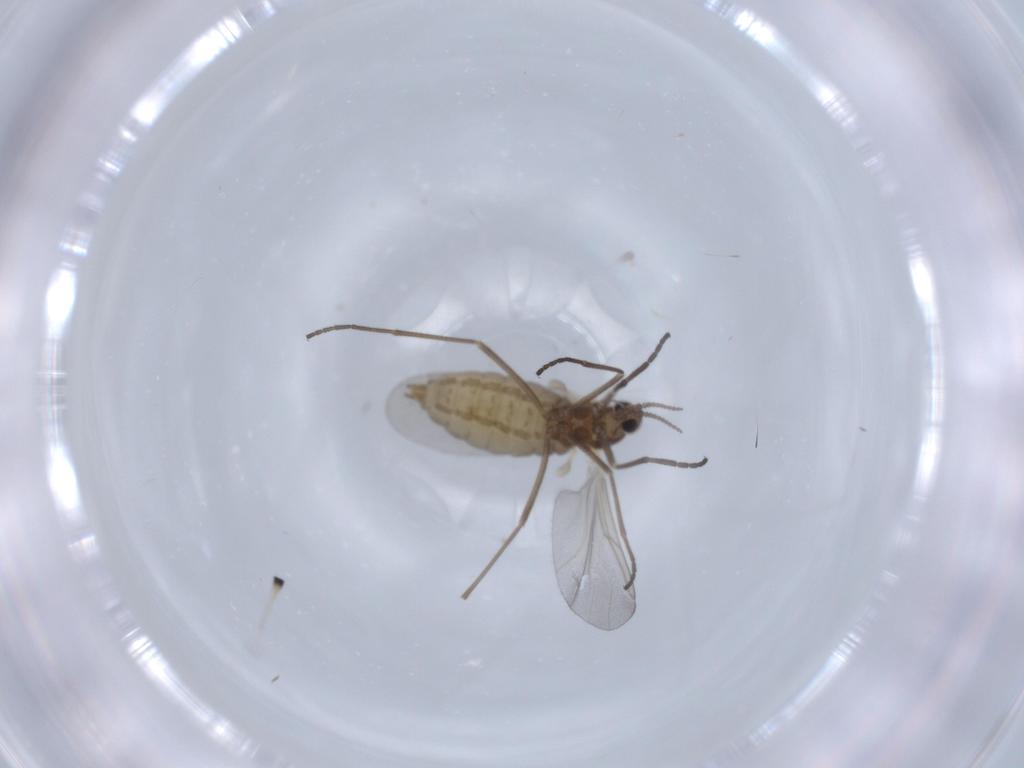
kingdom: Animalia
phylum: Arthropoda
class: Insecta
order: Diptera
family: Cecidomyiidae
